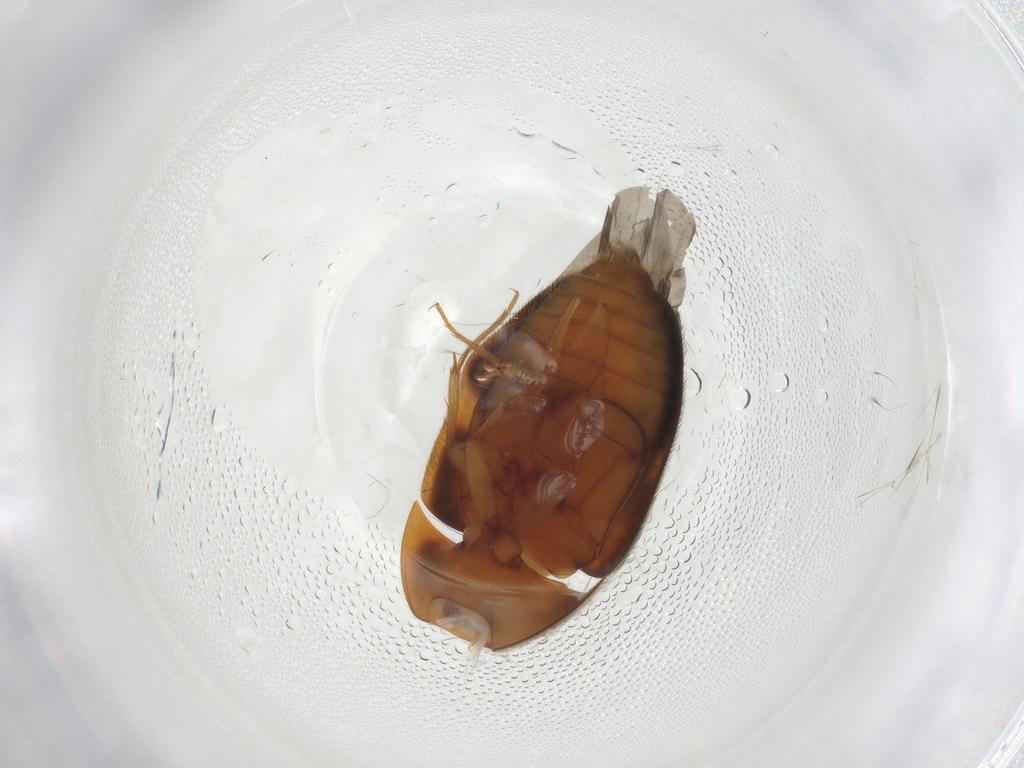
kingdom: Animalia
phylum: Arthropoda
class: Insecta
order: Coleoptera
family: Mycetophagidae
